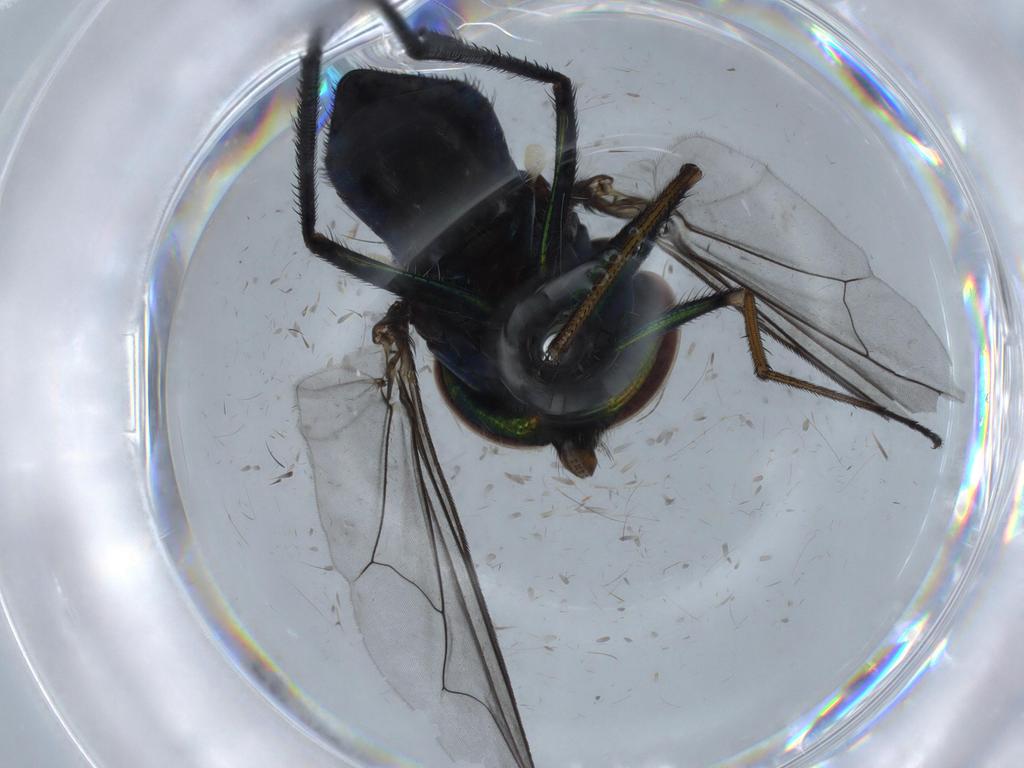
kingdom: Animalia
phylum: Arthropoda
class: Insecta
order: Diptera
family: Dolichopodidae
